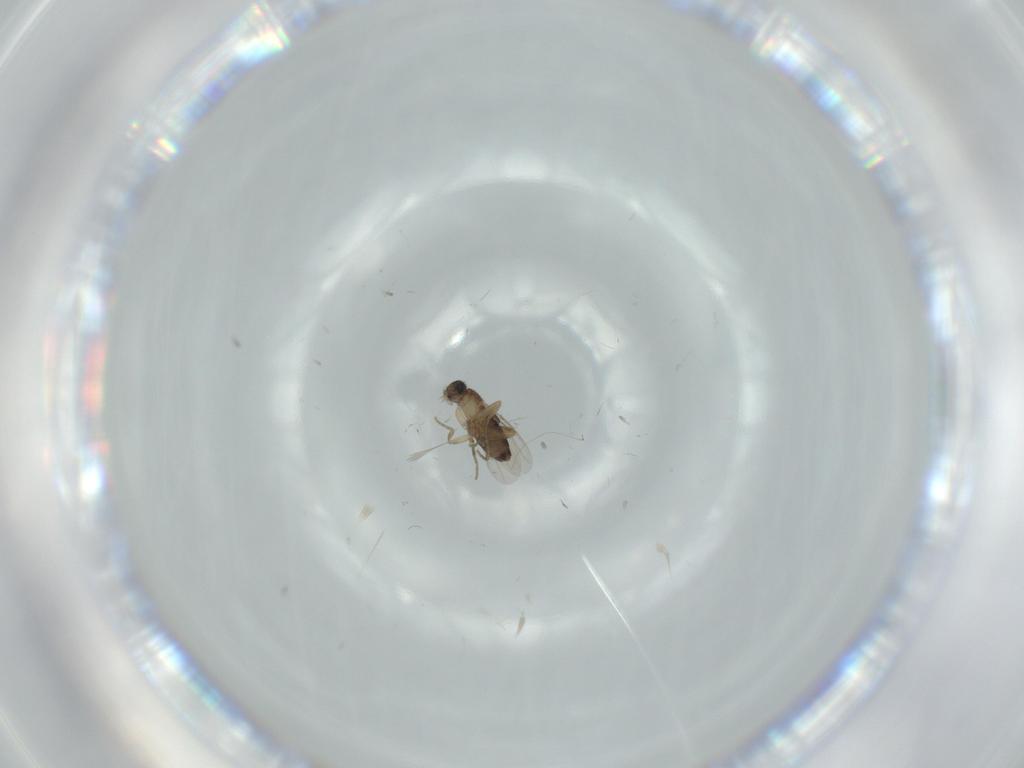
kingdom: Animalia
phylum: Arthropoda
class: Insecta
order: Diptera
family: Phoridae
